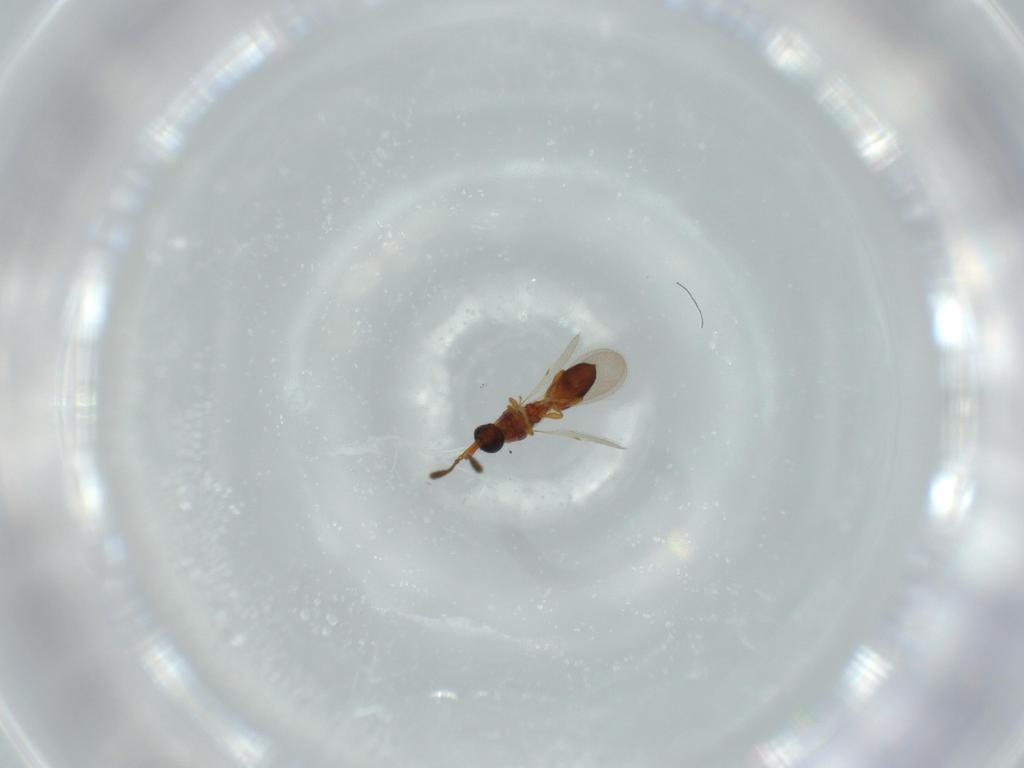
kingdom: Animalia
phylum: Arthropoda
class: Insecta
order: Hymenoptera
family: Diapriidae
